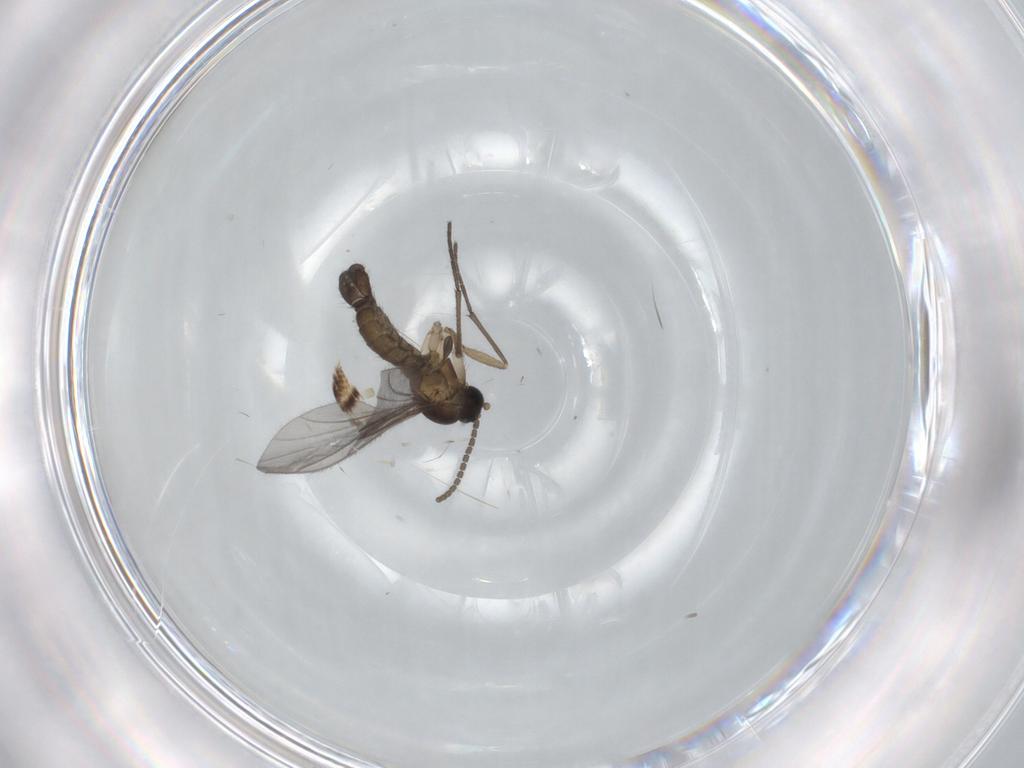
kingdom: Animalia
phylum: Arthropoda
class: Insecta
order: Diptera
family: Sciaridae
